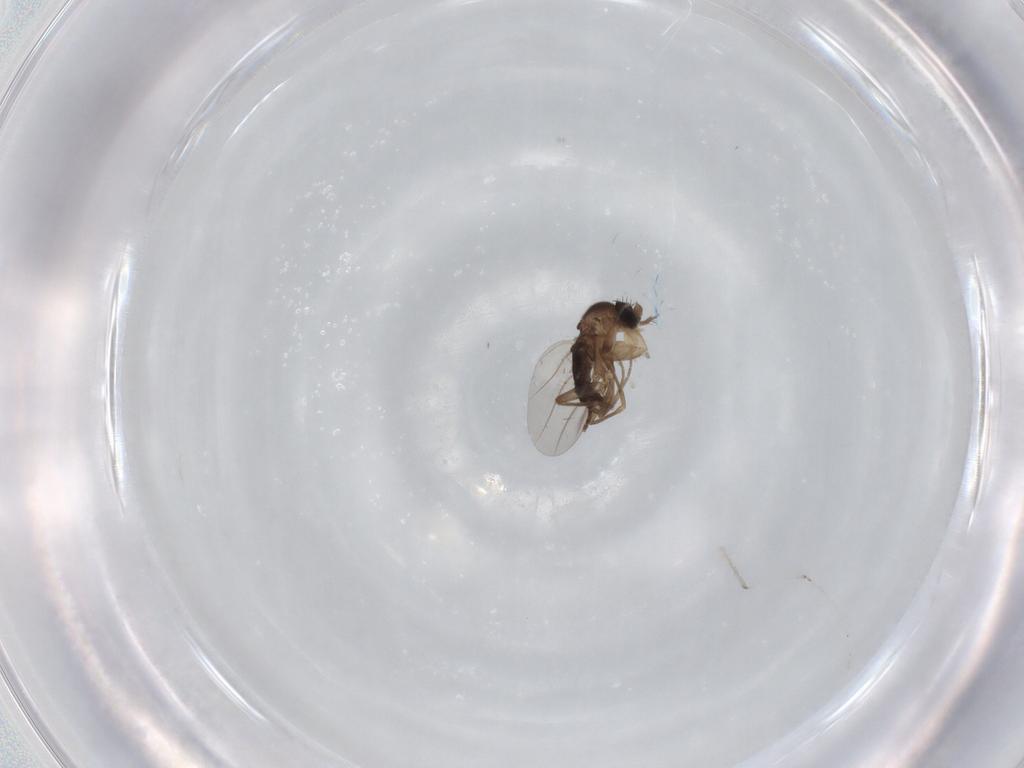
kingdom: Animalia
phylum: Arthropoda
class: Insecta
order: Diptera
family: Phoridae
